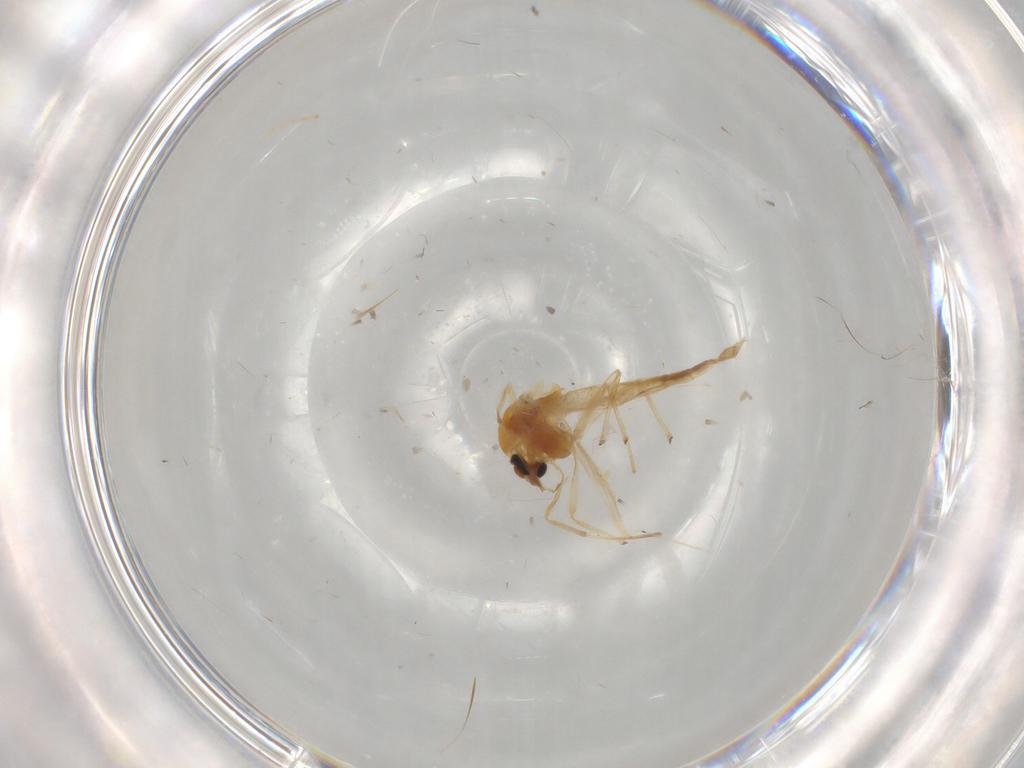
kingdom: Animalia
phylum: Arthropoda
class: Insecta
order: Diptera
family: Chironomidae
